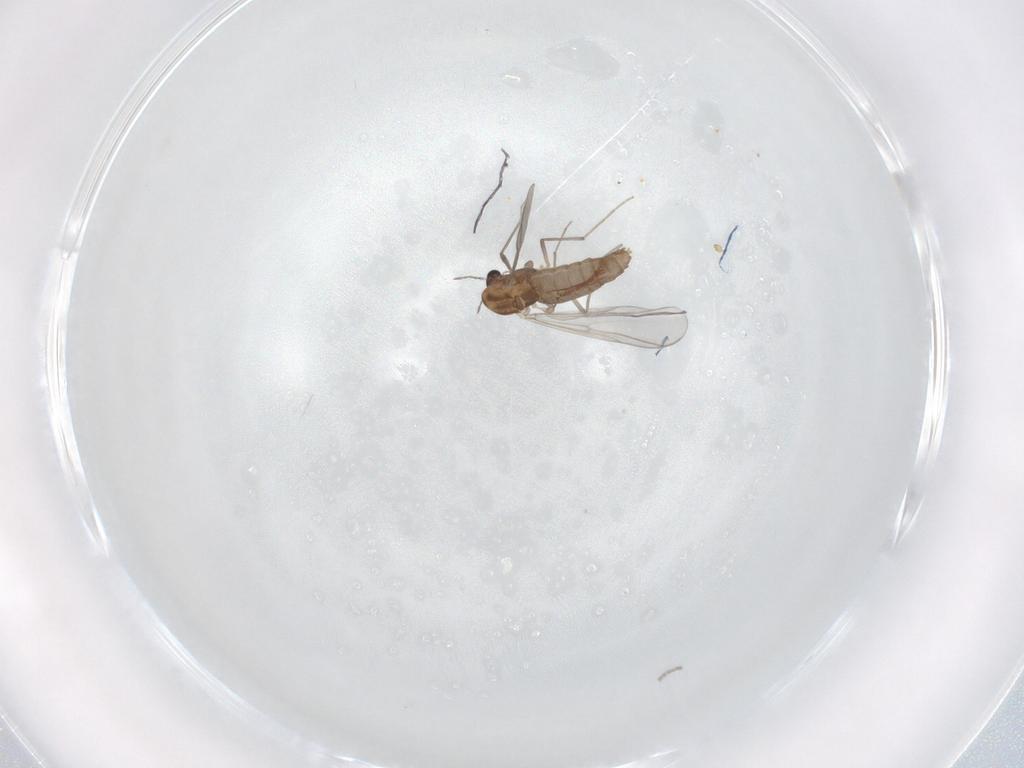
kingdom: Animalia
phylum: Arthropoda
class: Insecta
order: Diptera
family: Chironomidae
